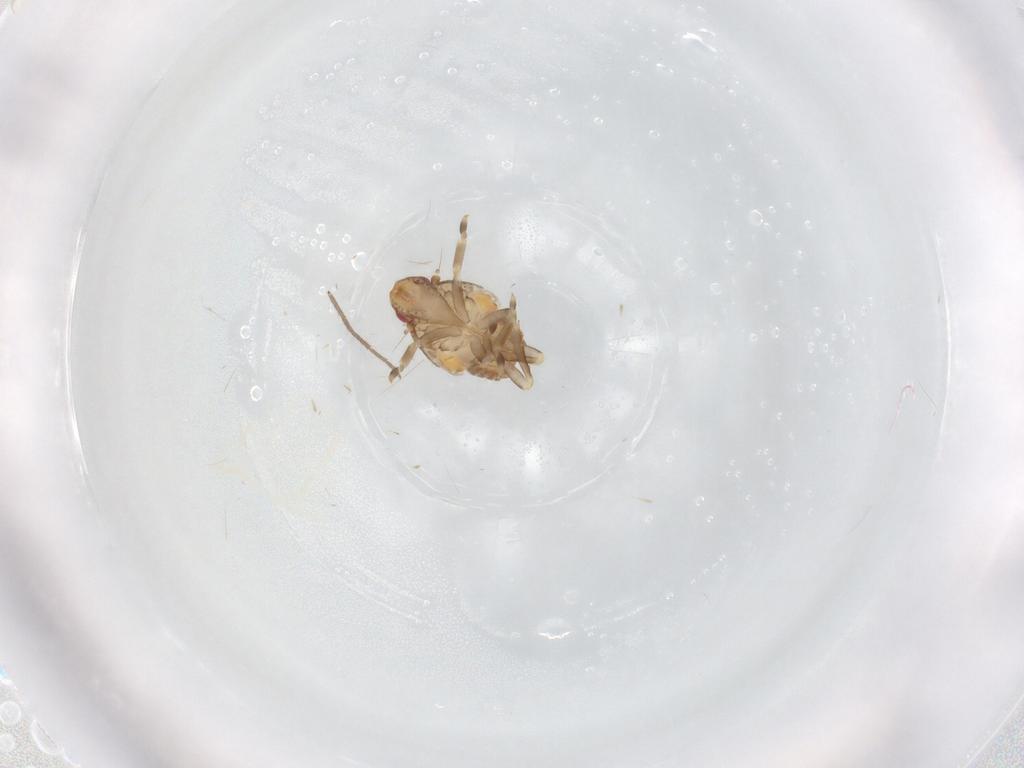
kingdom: Animalia
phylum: Arthropoda
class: Insecta
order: Hemiptera
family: Flatidae
